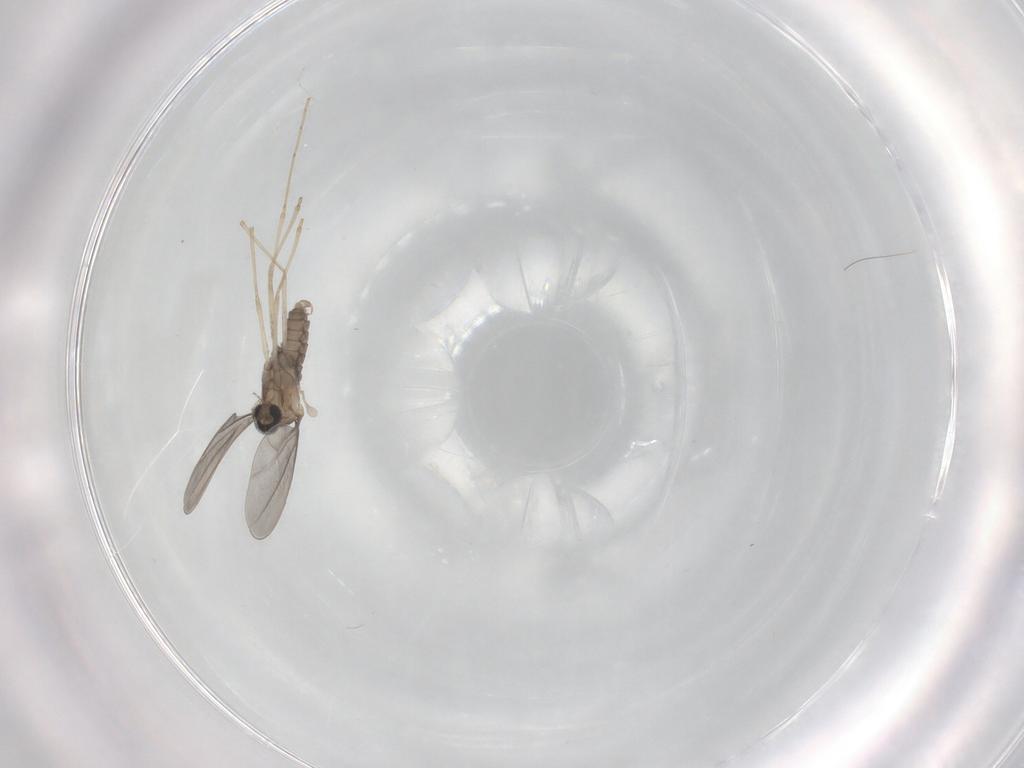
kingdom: Animalia
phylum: Arthropoda
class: Insecta
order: Diptera
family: Cecidomyiidae
